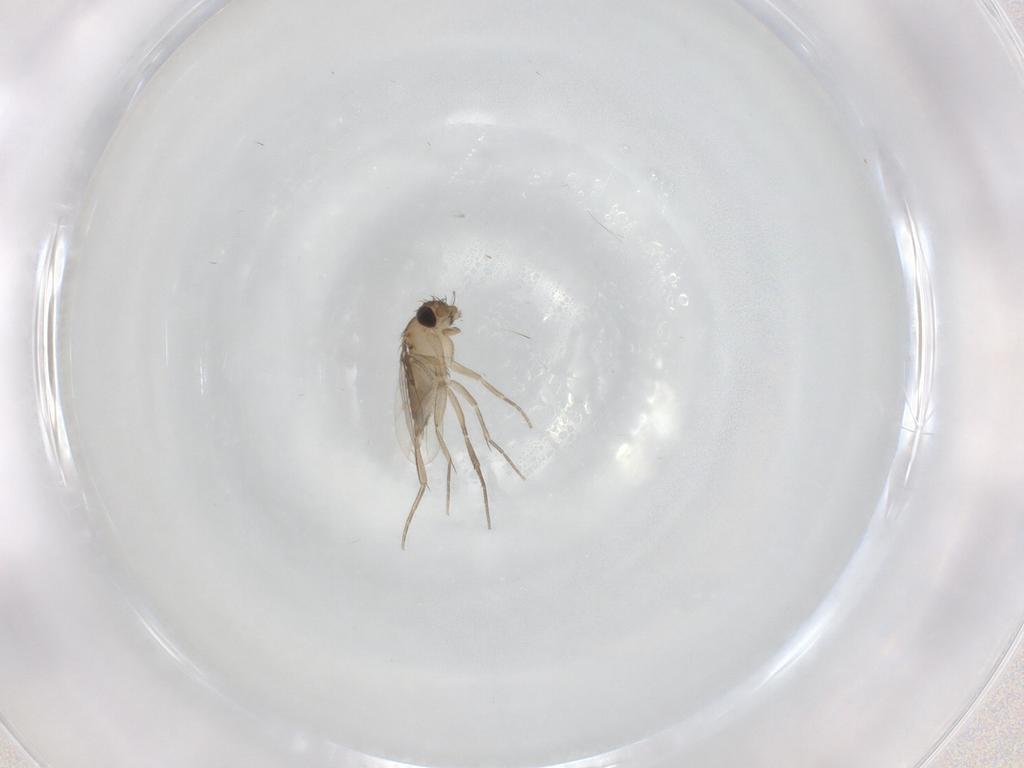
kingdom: Animalia
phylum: Arthropoda
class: Insecta
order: Diptera
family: Phoridae
